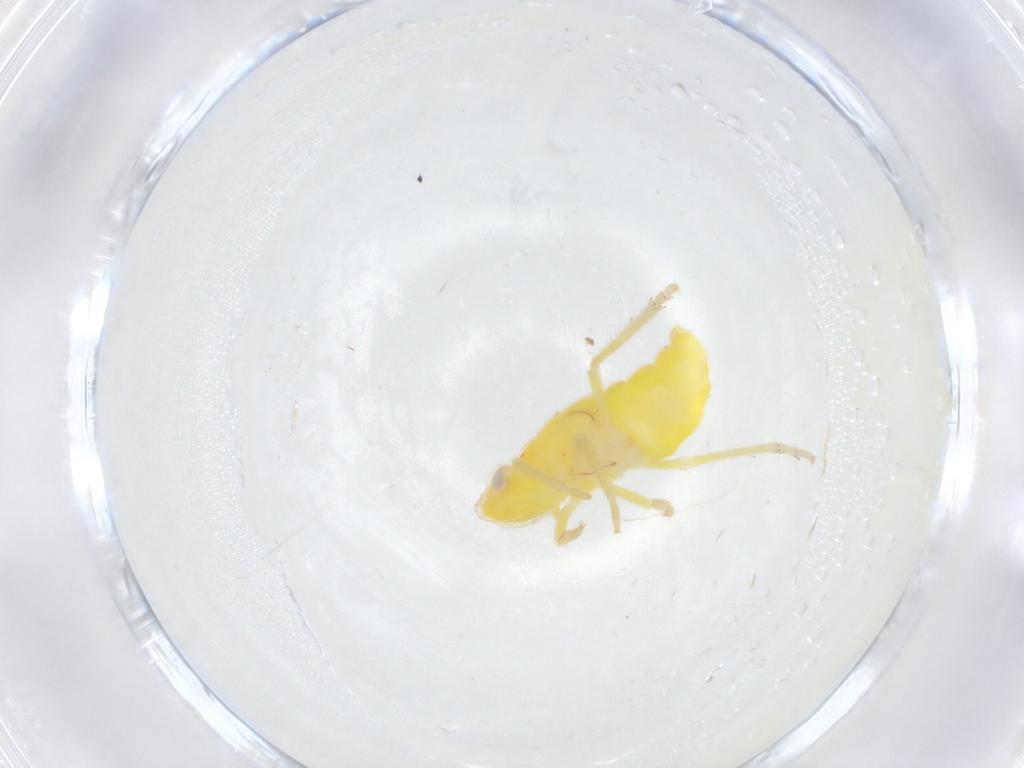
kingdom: Animalia
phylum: Arthropoda
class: Insecta
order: Hemiptera
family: Tropiduchidae
